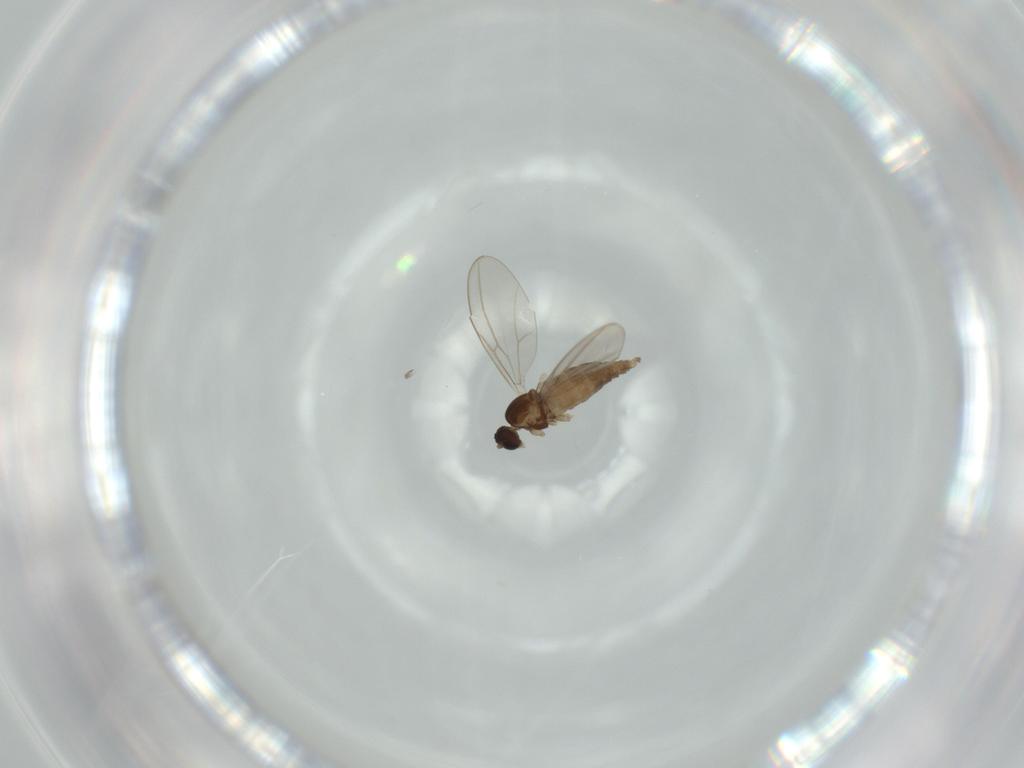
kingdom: Animalia
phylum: Arthropoda
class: Insecta
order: Diptera
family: Cecidomyiidae
